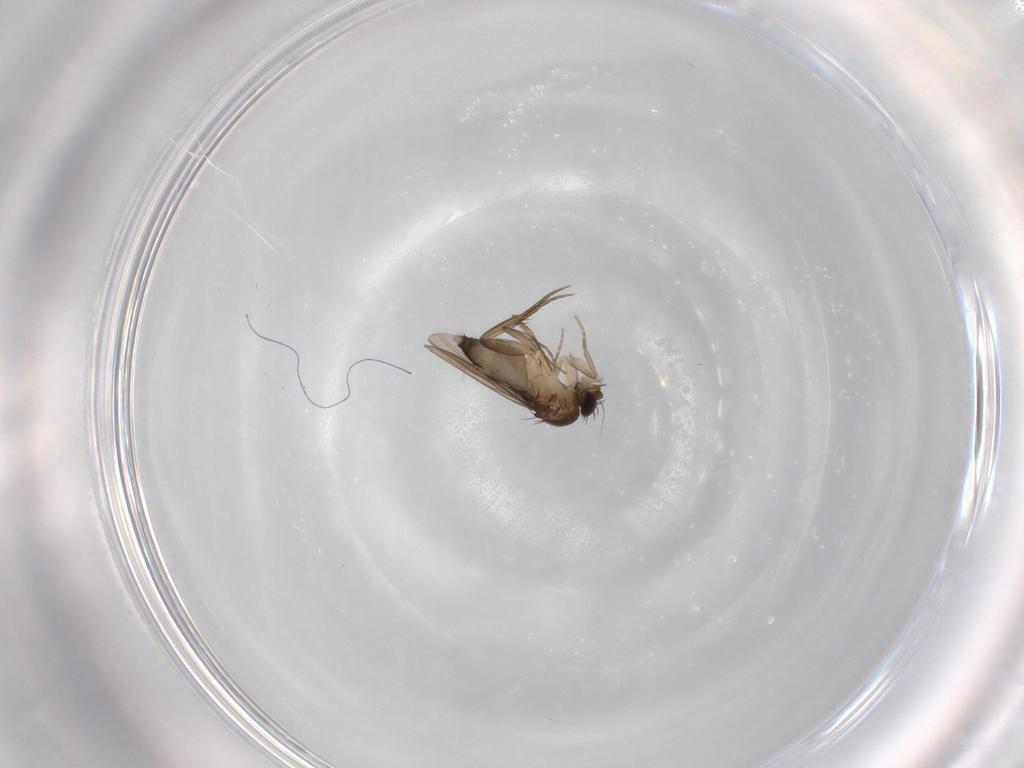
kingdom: Animalia
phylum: Arthropoda
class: Insecta
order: Diptera
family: Phoridae
